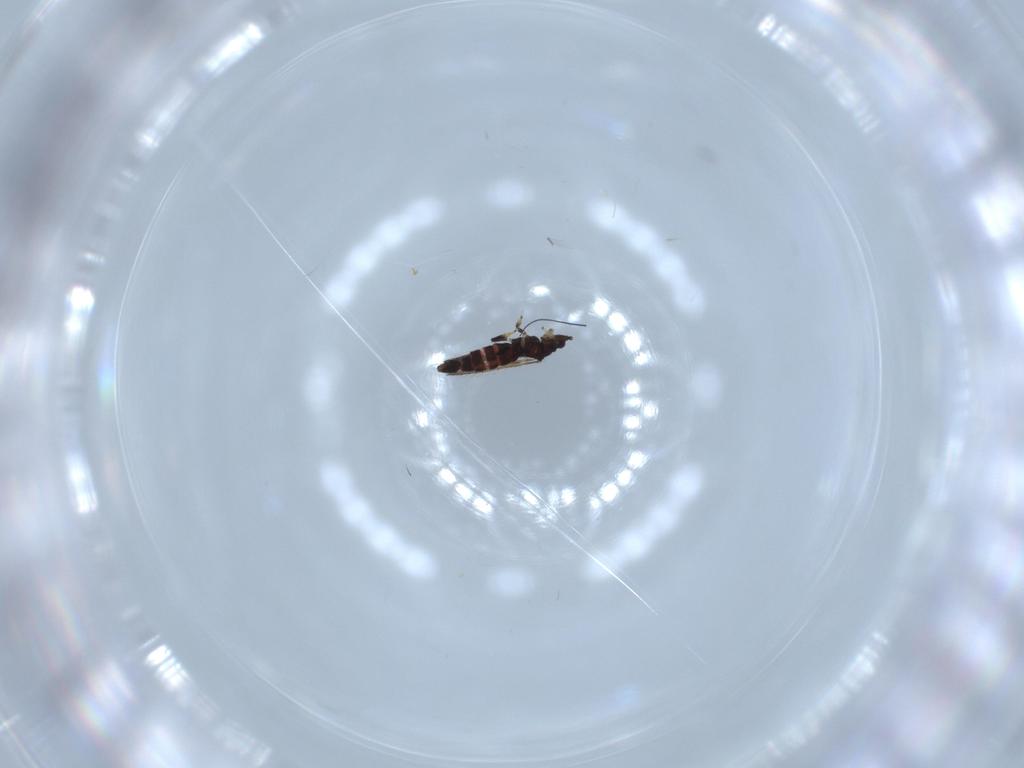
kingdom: Animalia
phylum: Arthropoda
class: Insecta
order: Thysanoptera
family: Thripidae
